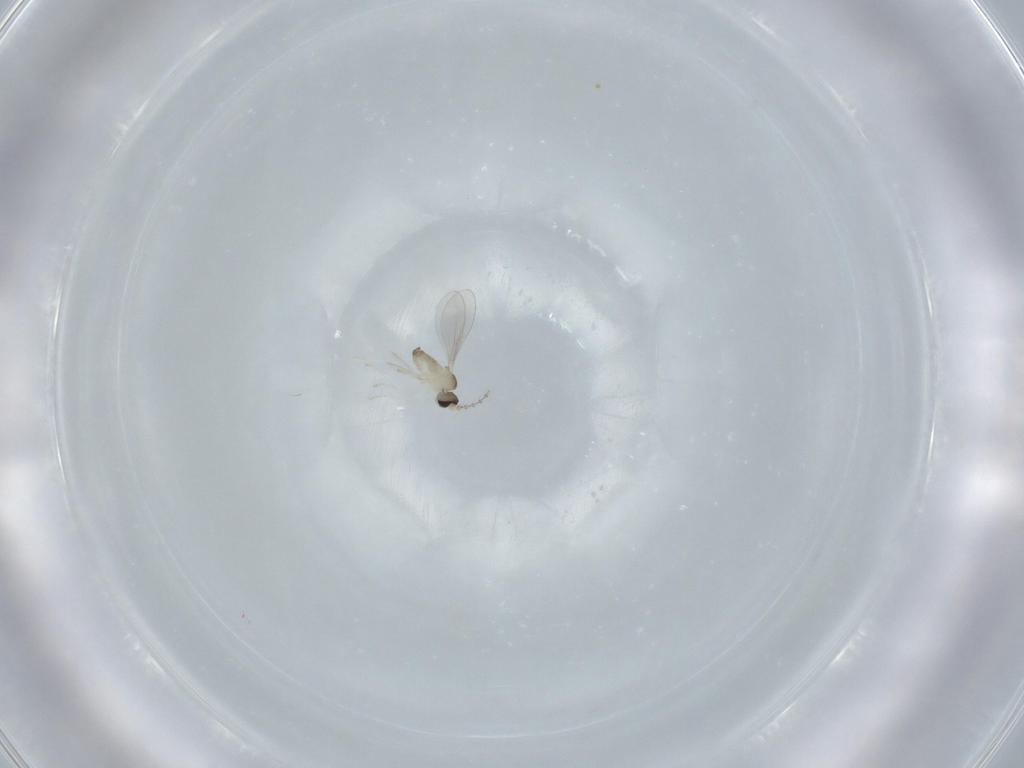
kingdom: Animalia
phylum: Arthropoda
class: Insecta
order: Diptera
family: Cecidomyiidae
